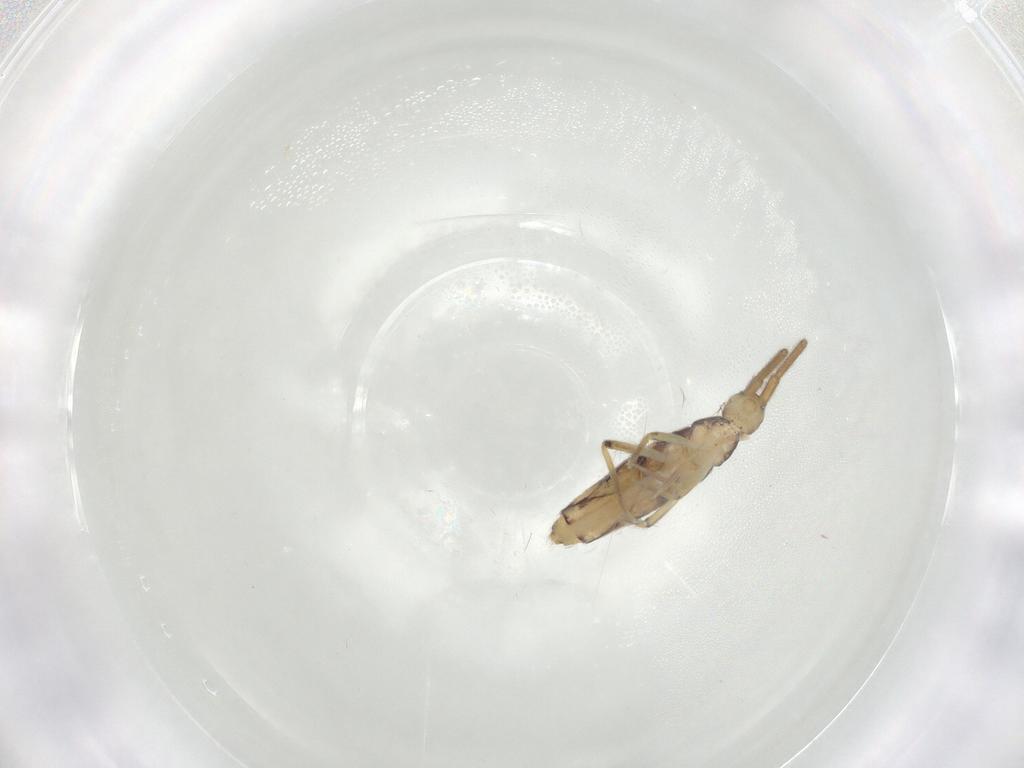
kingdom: Animalia
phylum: Arthropoda
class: Collembola
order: Entomobryomorpha
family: Entomobryidae
